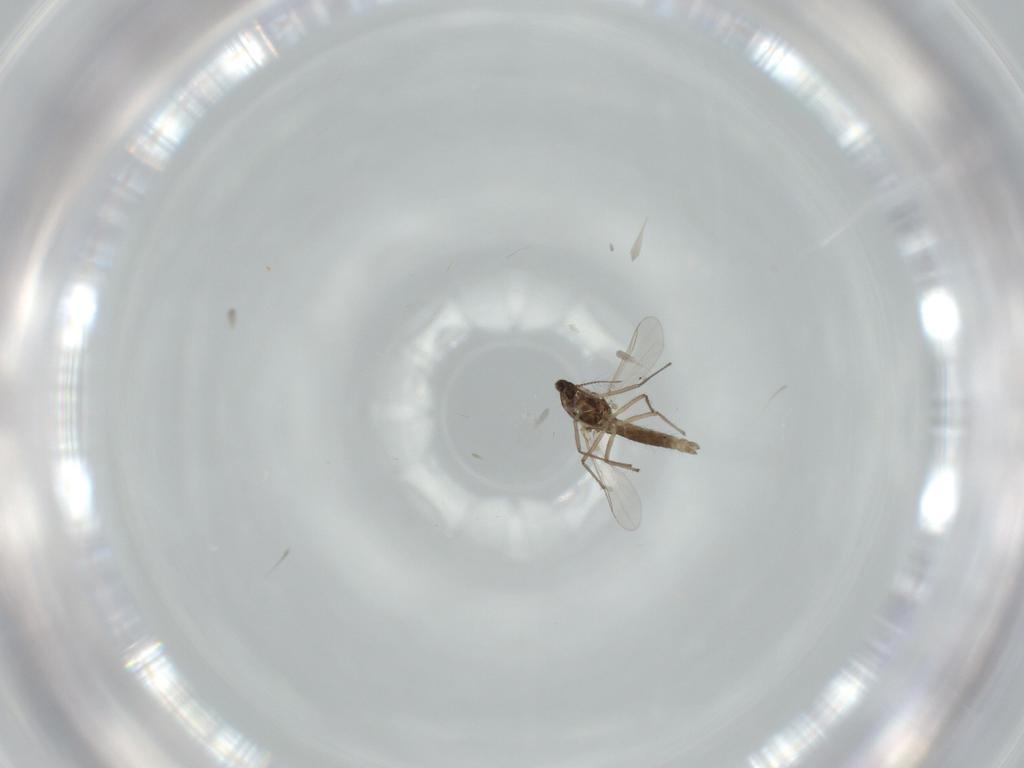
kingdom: Animalia
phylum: Arthropoda
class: Insecta
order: Diptera
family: Chironomidae
